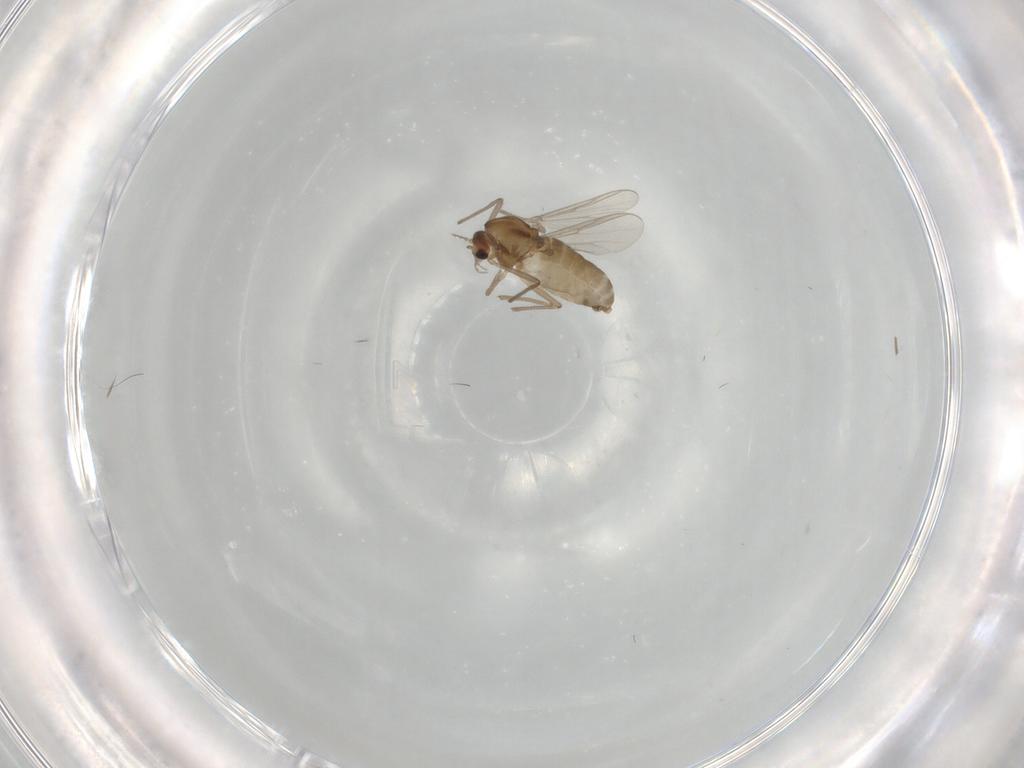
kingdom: Animalia
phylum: Arthropoda
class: Insecta
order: Diptera
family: Chironomidae
